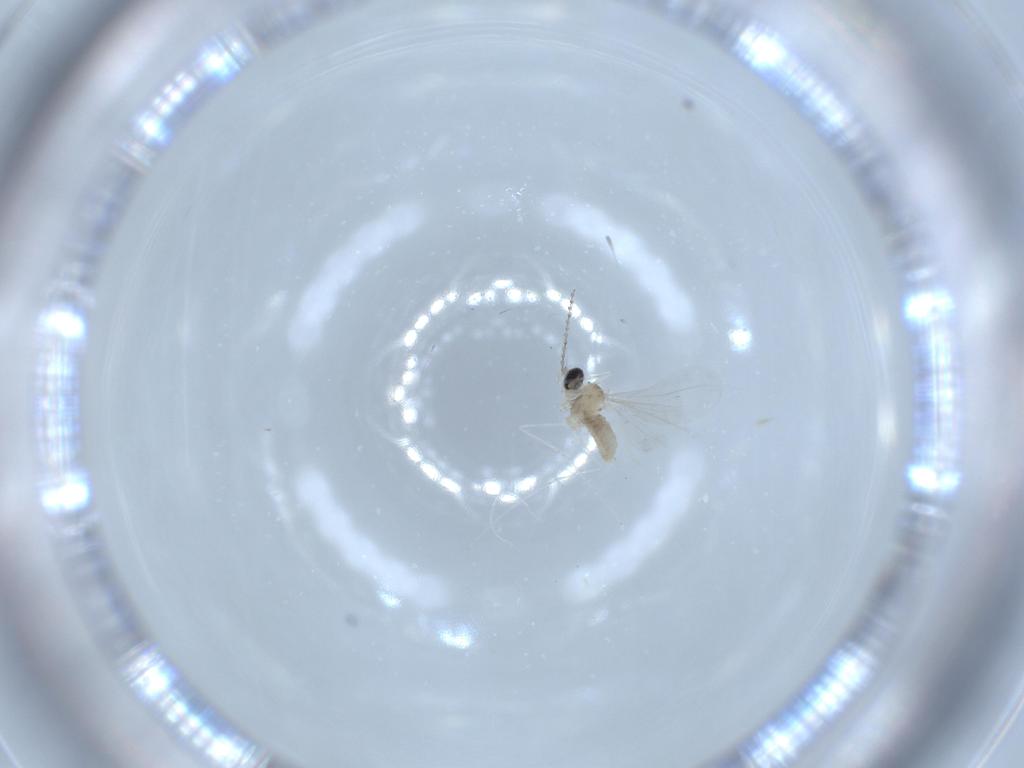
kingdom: Animalia
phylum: Arthropoda
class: Insecta
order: Diptera
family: Cecidomyiidae
